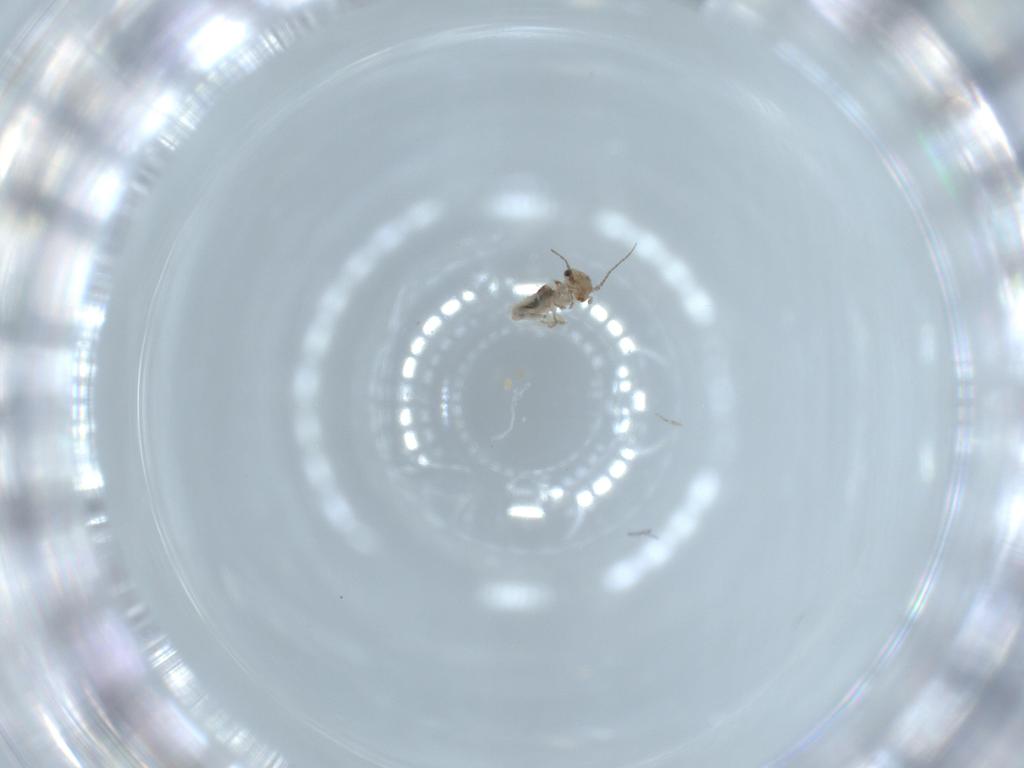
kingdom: Animalia
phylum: Arthropoda
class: Insecta
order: Psocodea
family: Lepidopsocidae
